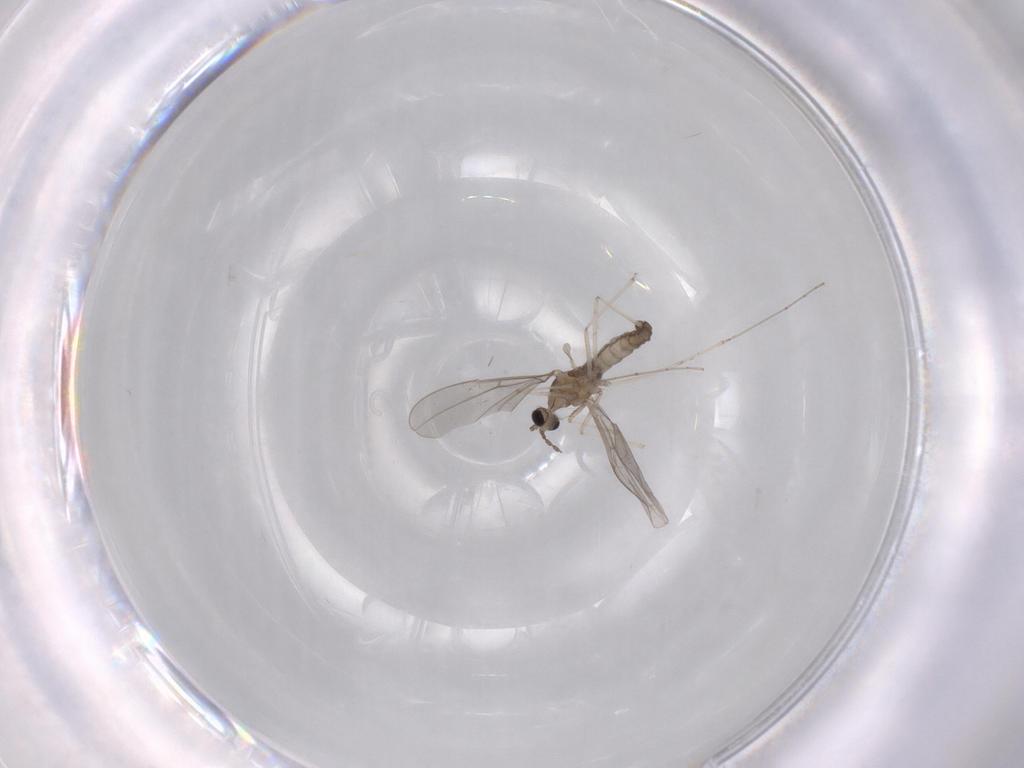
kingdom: Animalia
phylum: Arthropoda
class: Insecta
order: Diptera
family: Cecidomyiidae
